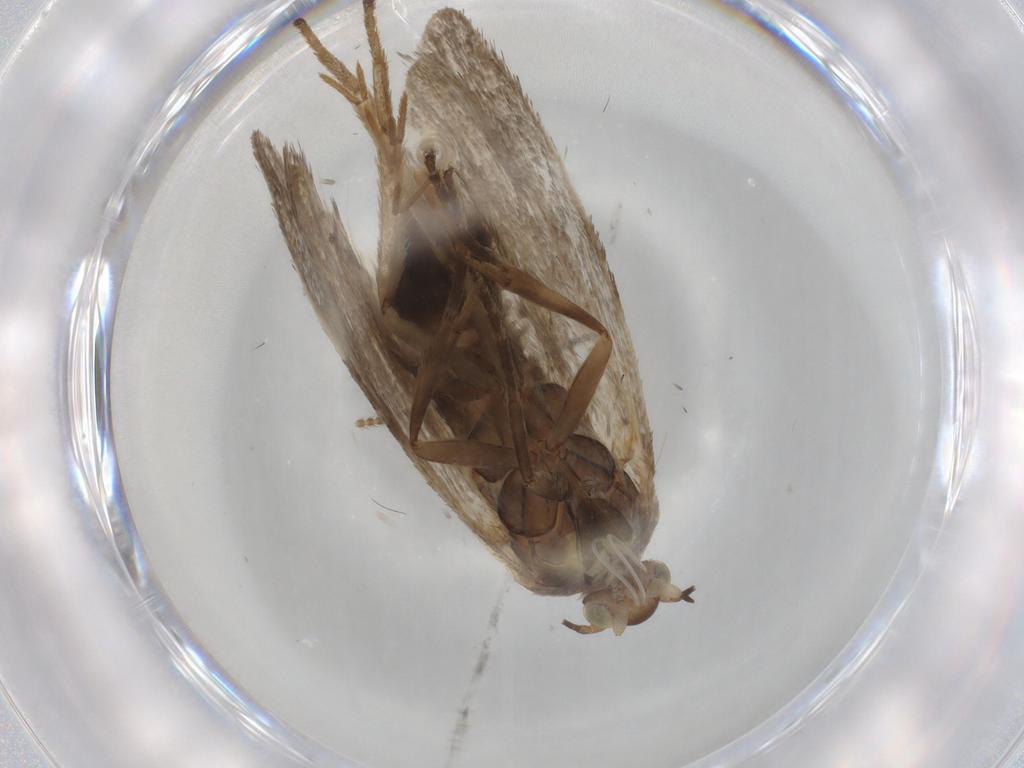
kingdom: Animalia
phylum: Arthropoda
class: Insecta
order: Lepidoptera
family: Choreutidae
